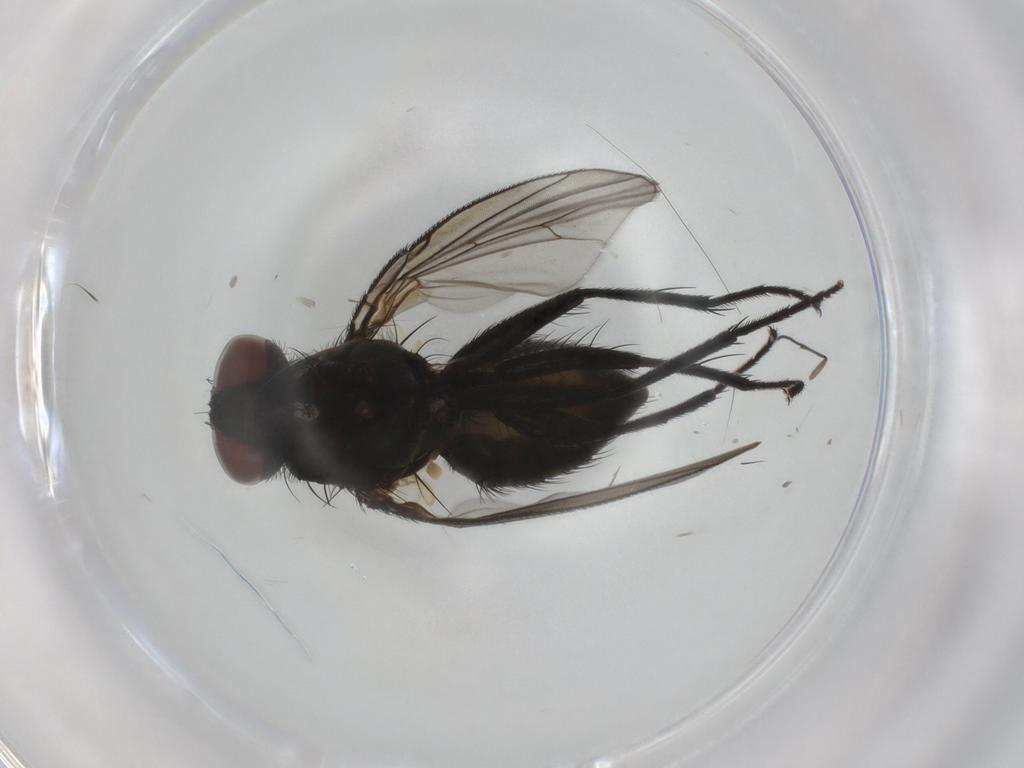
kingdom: Animalia
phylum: Arthropoda
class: Insecta
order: Diptera
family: Muscidae
